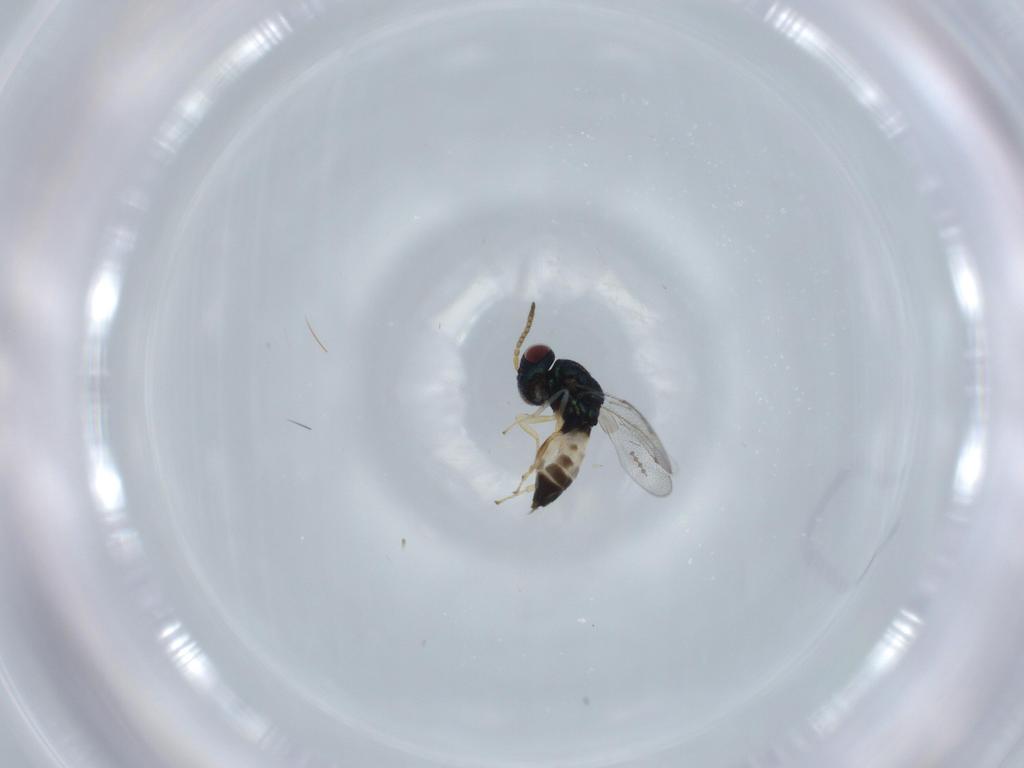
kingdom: Animalia
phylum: Arthropoda
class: Insecta
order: Hymenoptera
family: Pteromalidae
